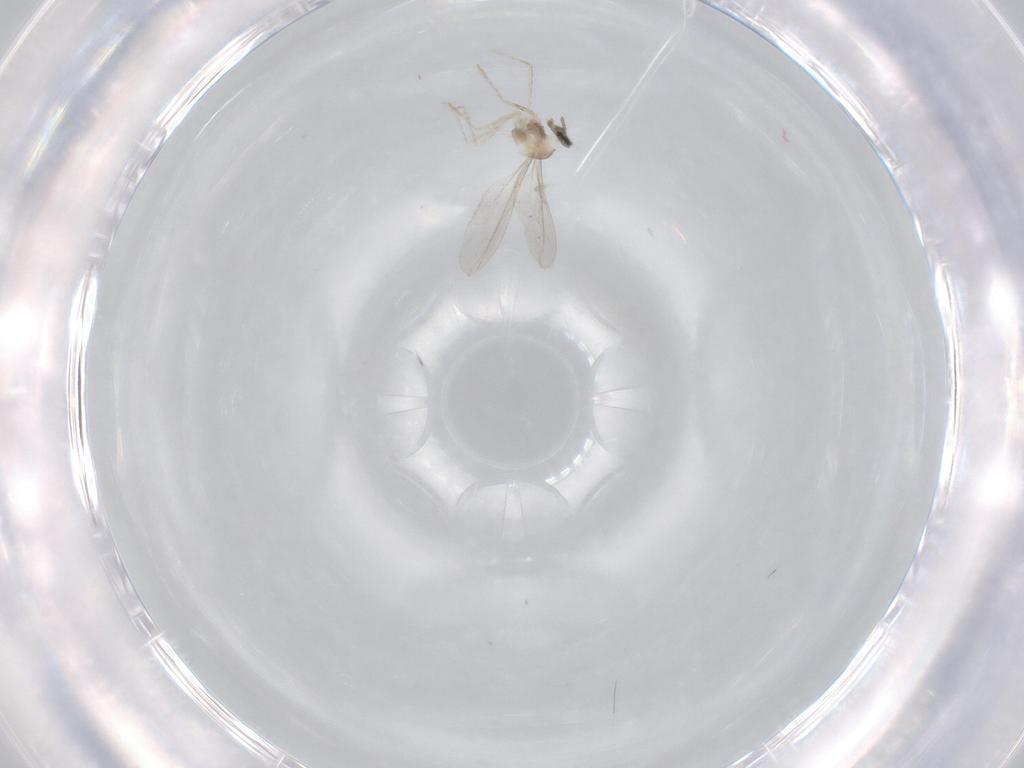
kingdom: Animalia
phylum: Arthropoda
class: Insecta
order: Diptera
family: Cecidomyiidae
